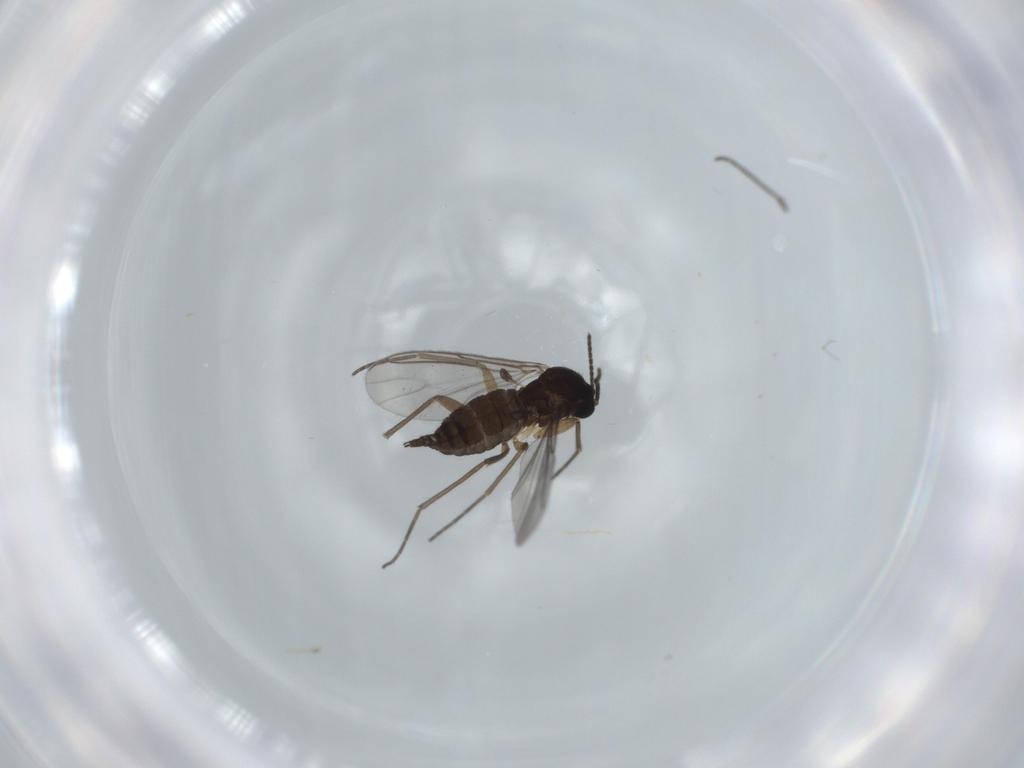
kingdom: Animalia
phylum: Arthropoda
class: Insecta
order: Diptera
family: Sciaridae
